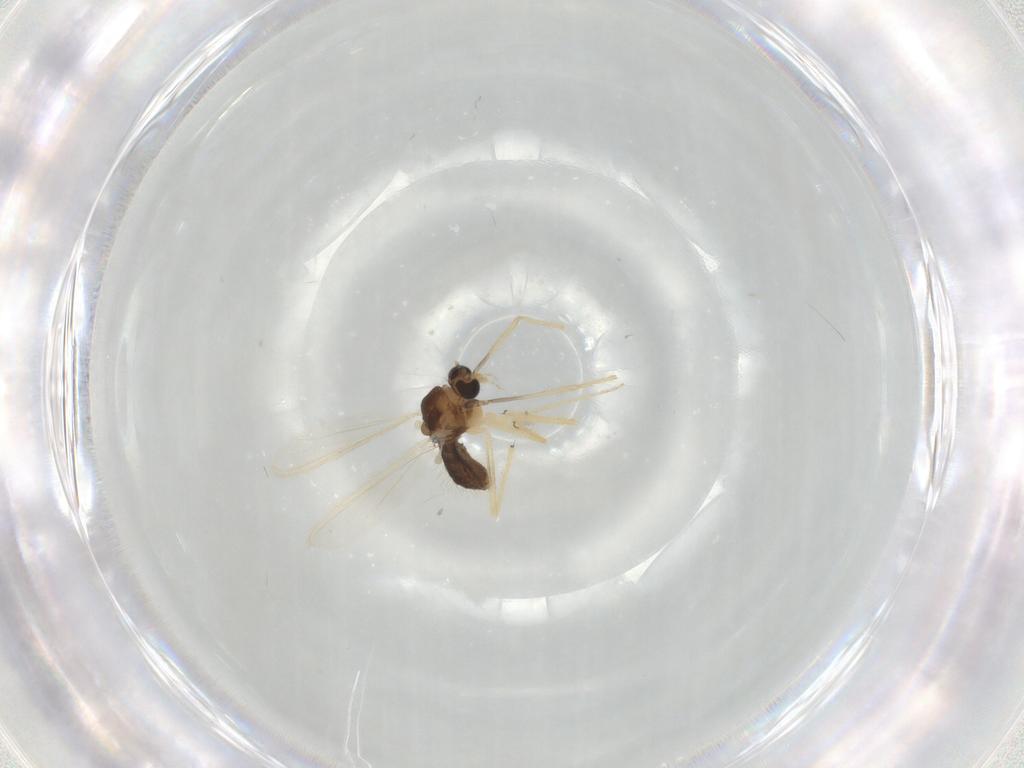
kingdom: Animalia
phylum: Arthropoda
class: Insecta
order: Diptera
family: Chironomidae
